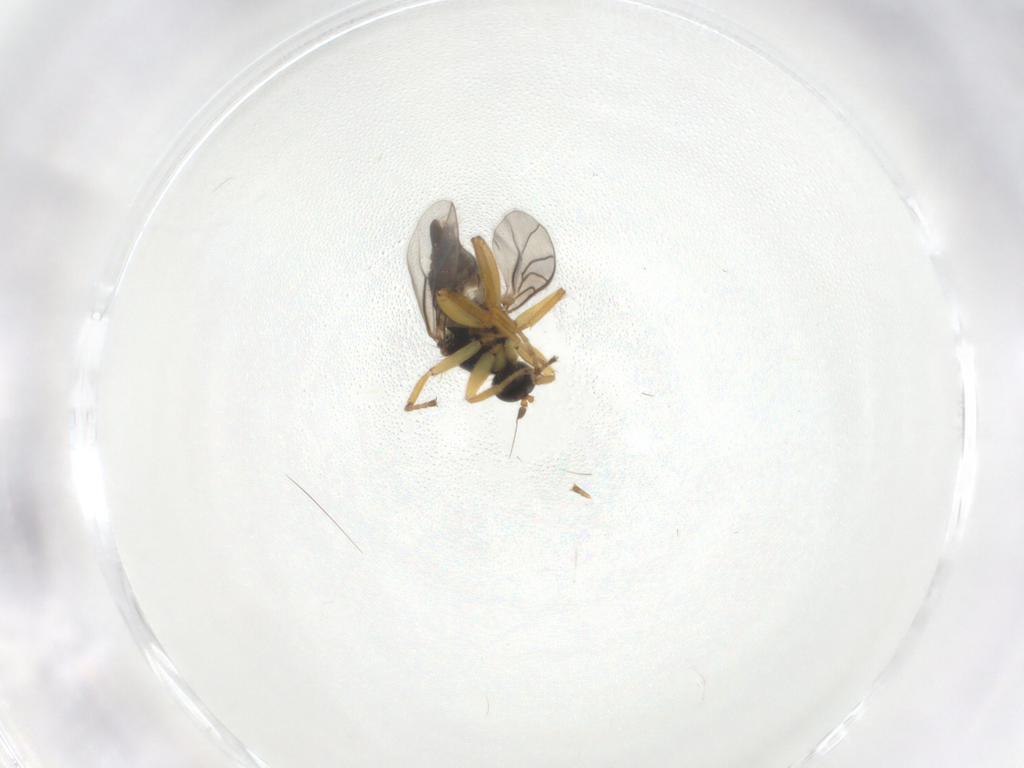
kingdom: Animalia
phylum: Arthropoda
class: Insecta
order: Diptera
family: Hybotidae
